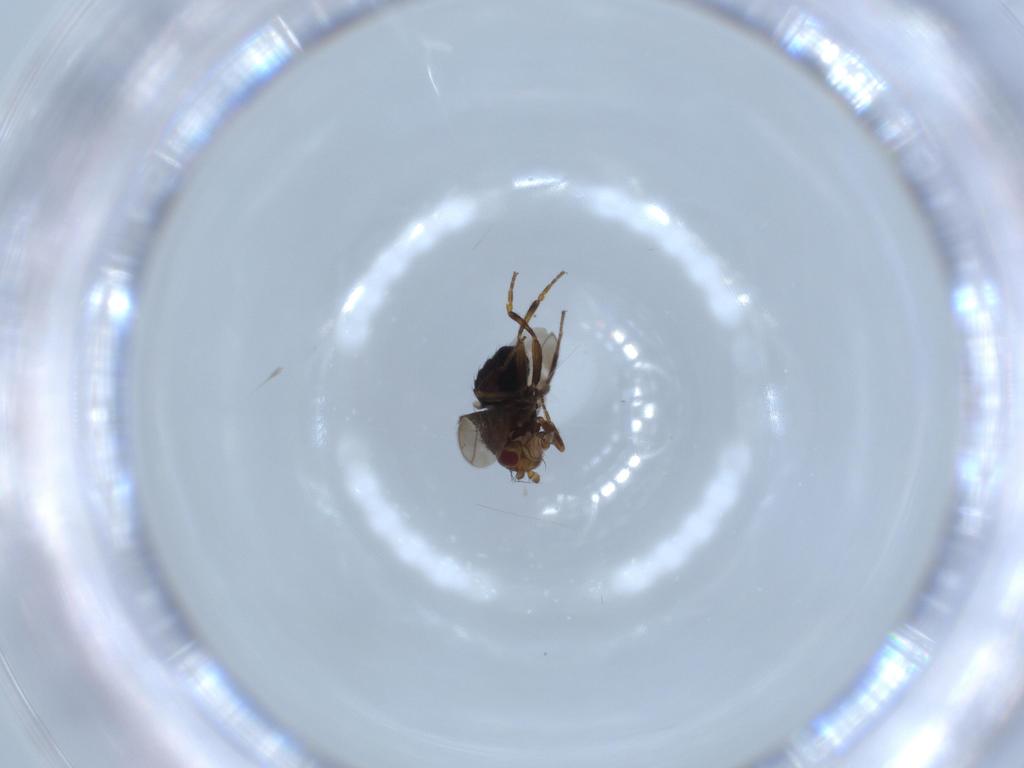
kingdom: Animalia
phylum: Arthropoda
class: Insecta
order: Diptera
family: Sphaeroceridae
